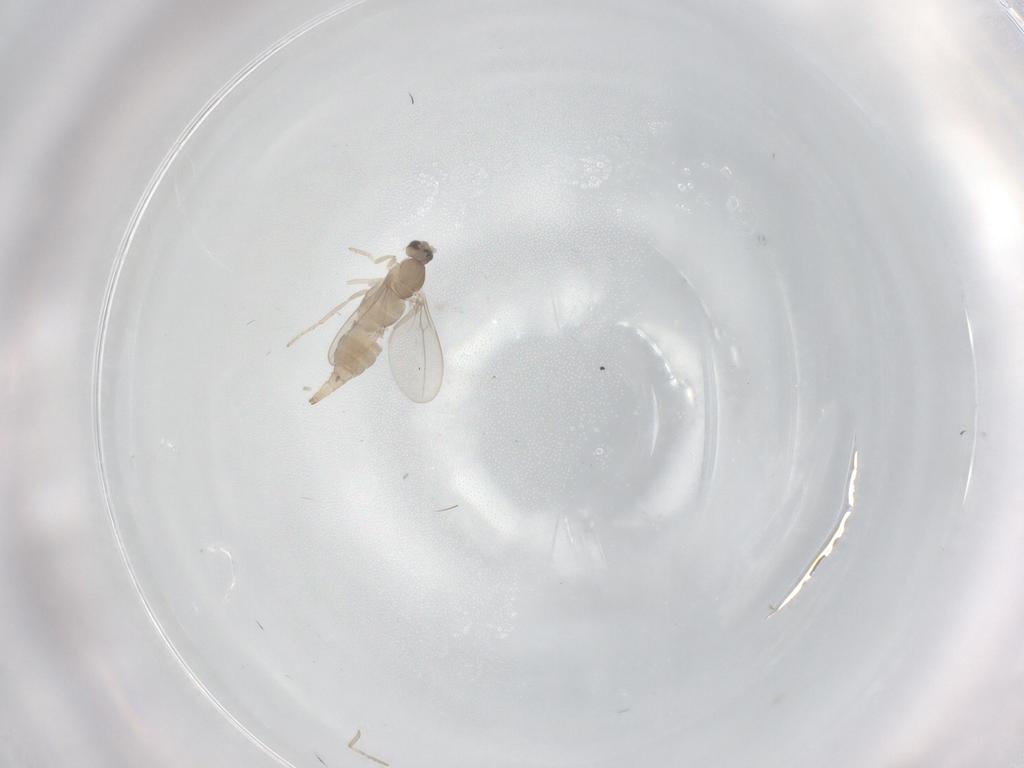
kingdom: Animalia
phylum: Arthropoda
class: Insecta
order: Diptera
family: Cecidomyiidae
